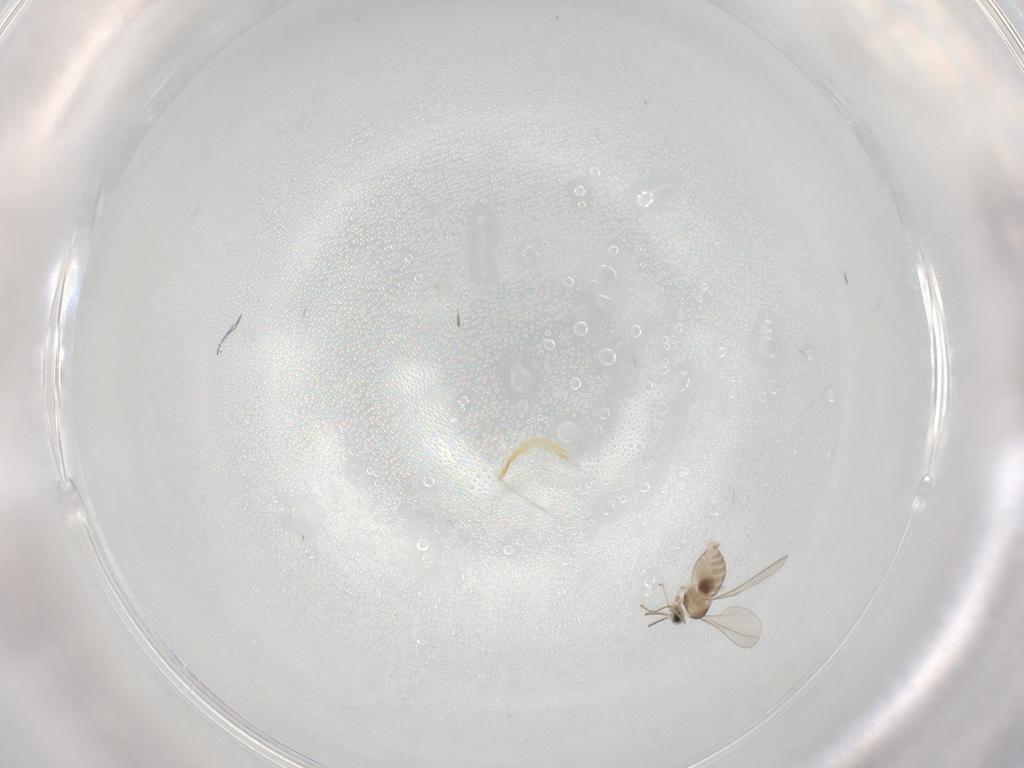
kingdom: Animalia
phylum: Arthropoda
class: Insecta
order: Diptera
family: Cecidomyiidae
